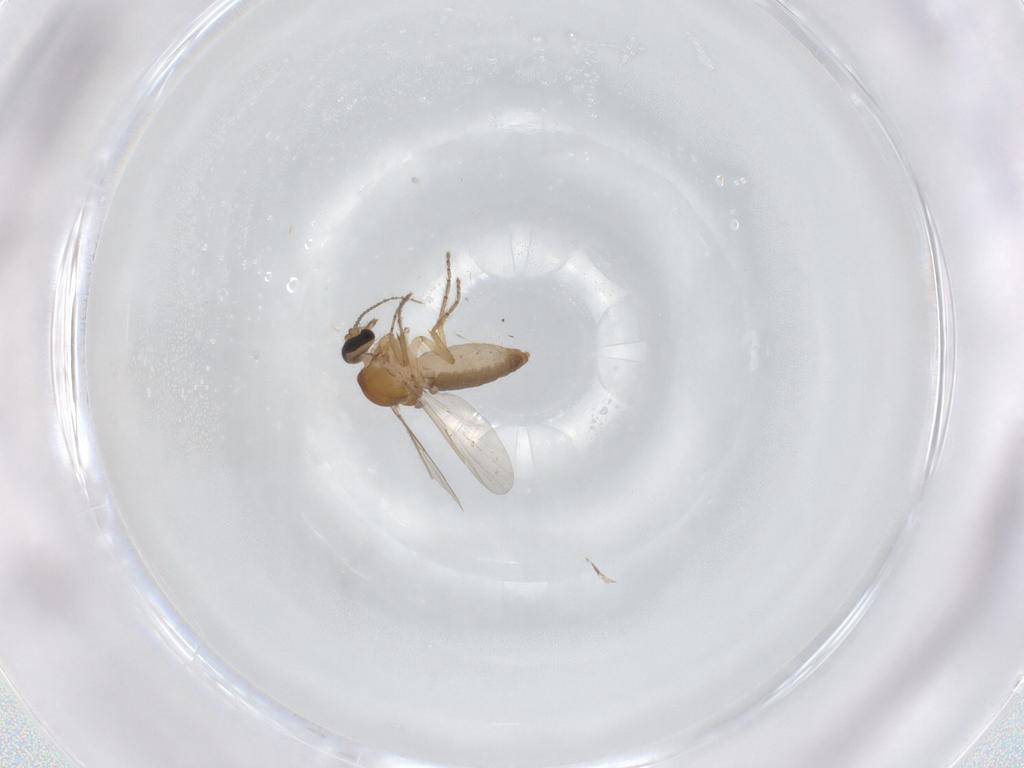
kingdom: Animalia
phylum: Arthropoda
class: Insecta
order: Diptera
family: Ceratopogonidae
